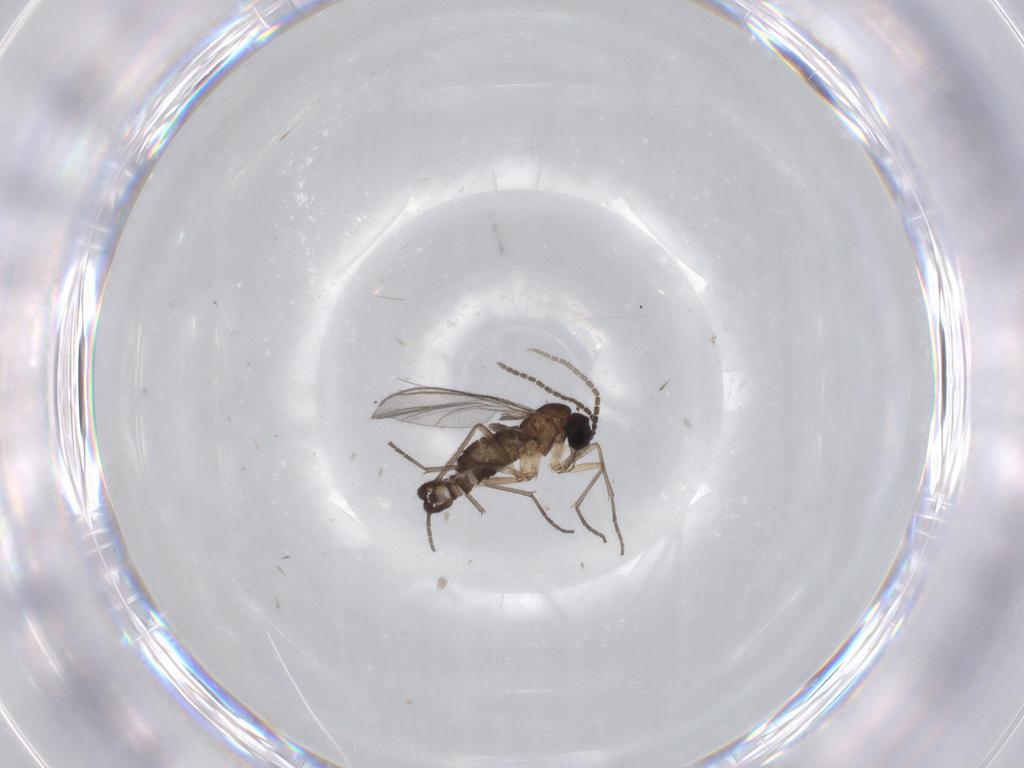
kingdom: Animalia
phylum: Arthropoda
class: Insecta
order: Diptera
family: Sciaridae
